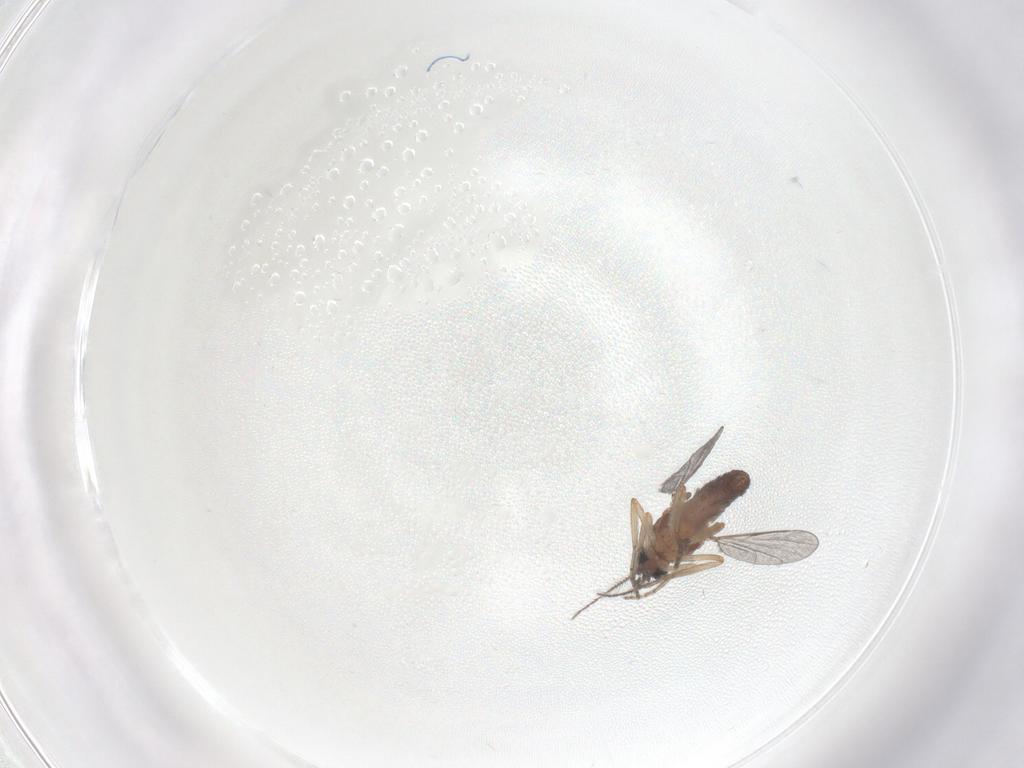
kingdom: Animalia
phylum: Arthropoda
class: Insecta
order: Diptera
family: Ceratopogonidae
